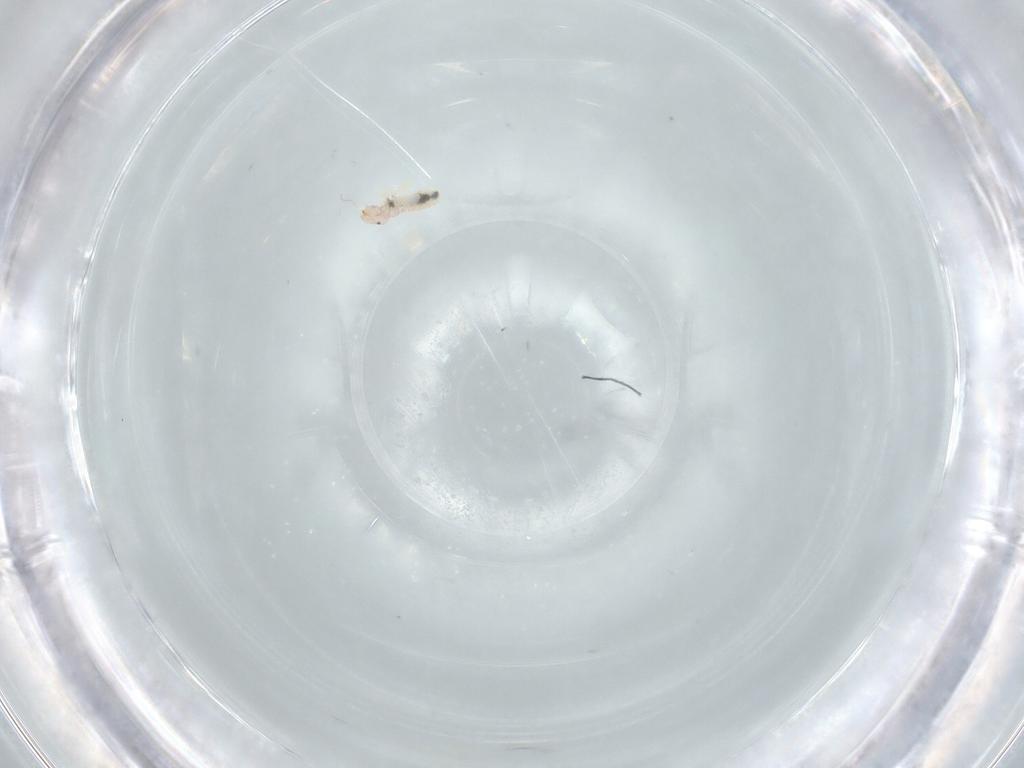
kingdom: Animalia
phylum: Arthropoda
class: Insecta
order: Psocodea
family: Liposcelididae
